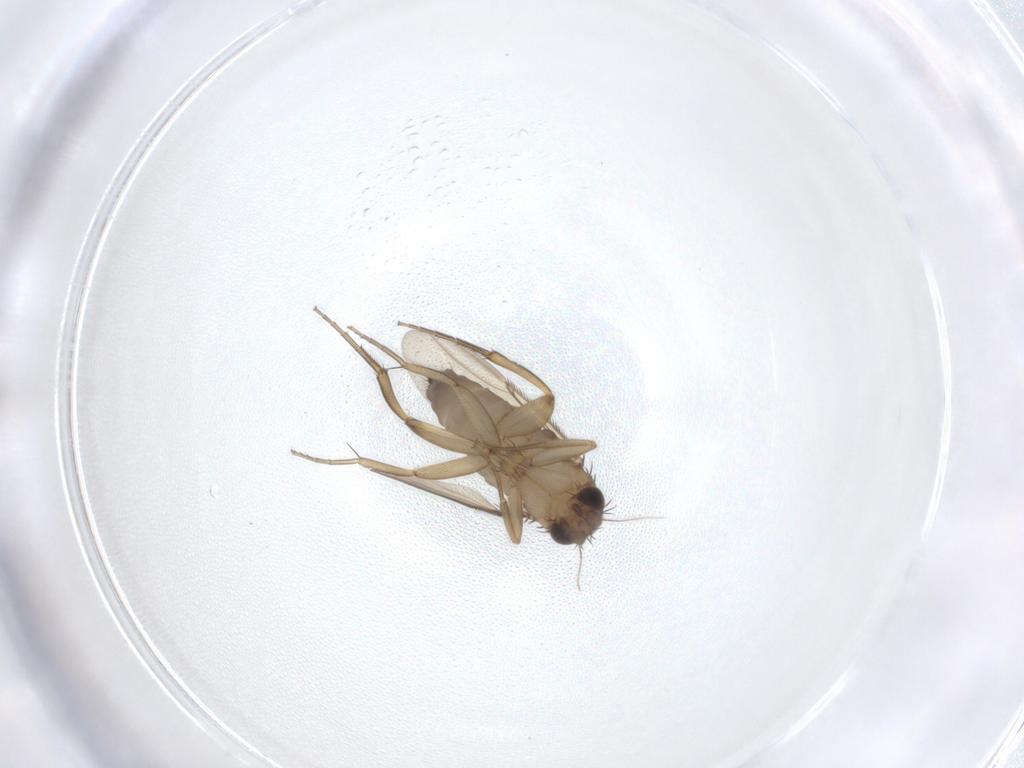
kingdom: Animalia
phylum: Arthropoda
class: Insecta
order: Diptera
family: Phoridae
